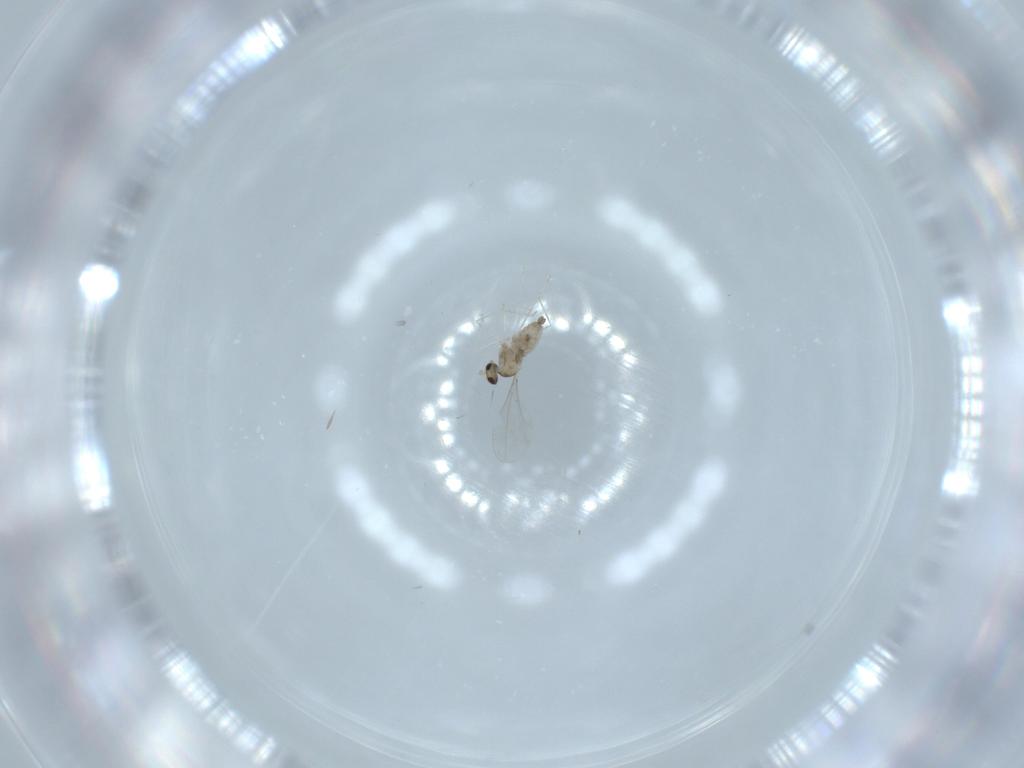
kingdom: Animalia
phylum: Arthropoda
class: Insecta
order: Diptera
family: Cecidomyiidae
